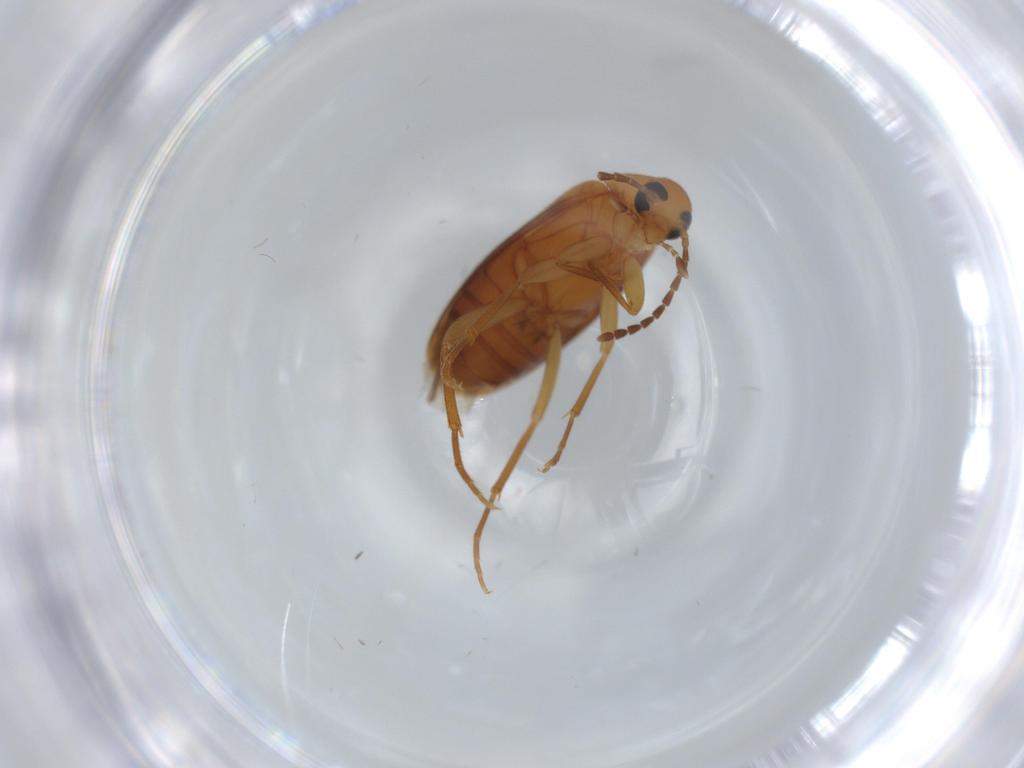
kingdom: Animalia
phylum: Arthropoda
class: Insecta
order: Coleoptera
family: Scraptiidae
